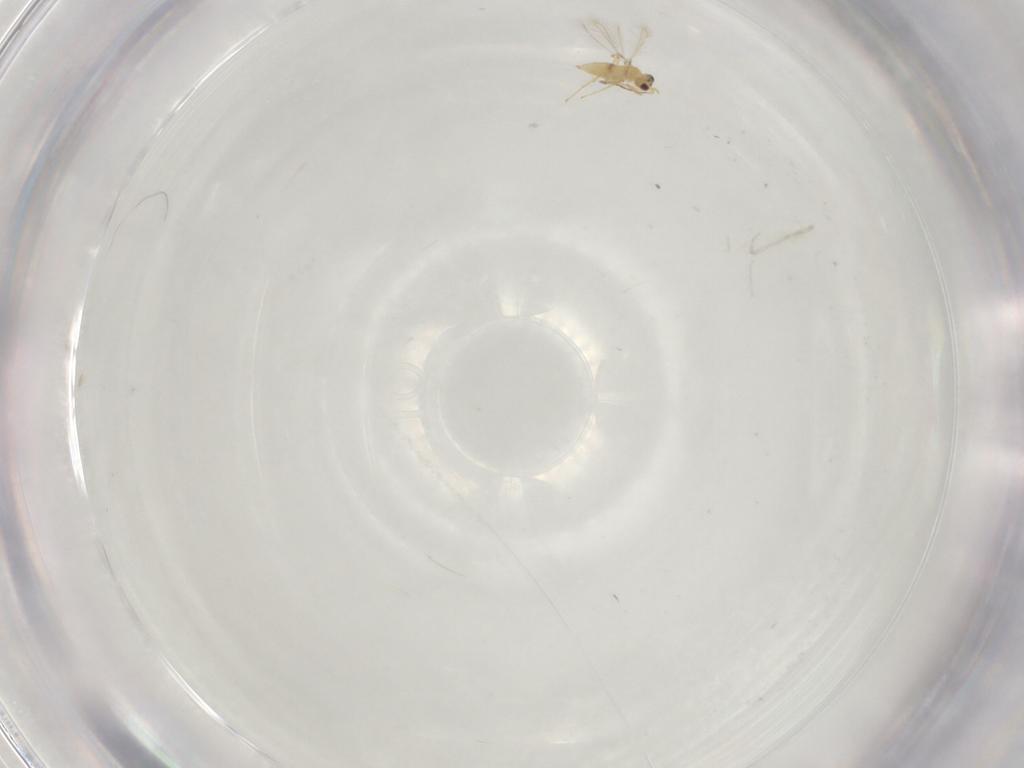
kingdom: Animalia
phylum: Arthropoda
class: Insecta
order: Hymenoptera
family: Mymaridae
